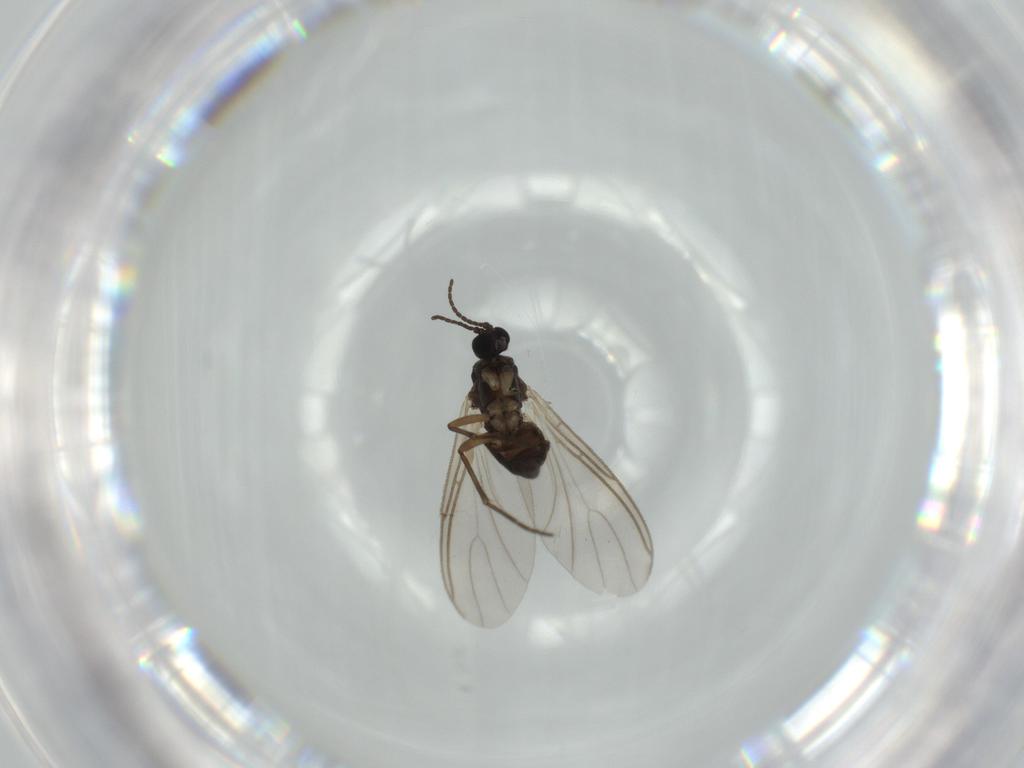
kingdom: Animalia
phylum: Arthropoda
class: Insecta
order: Diptera
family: Sciaridae
